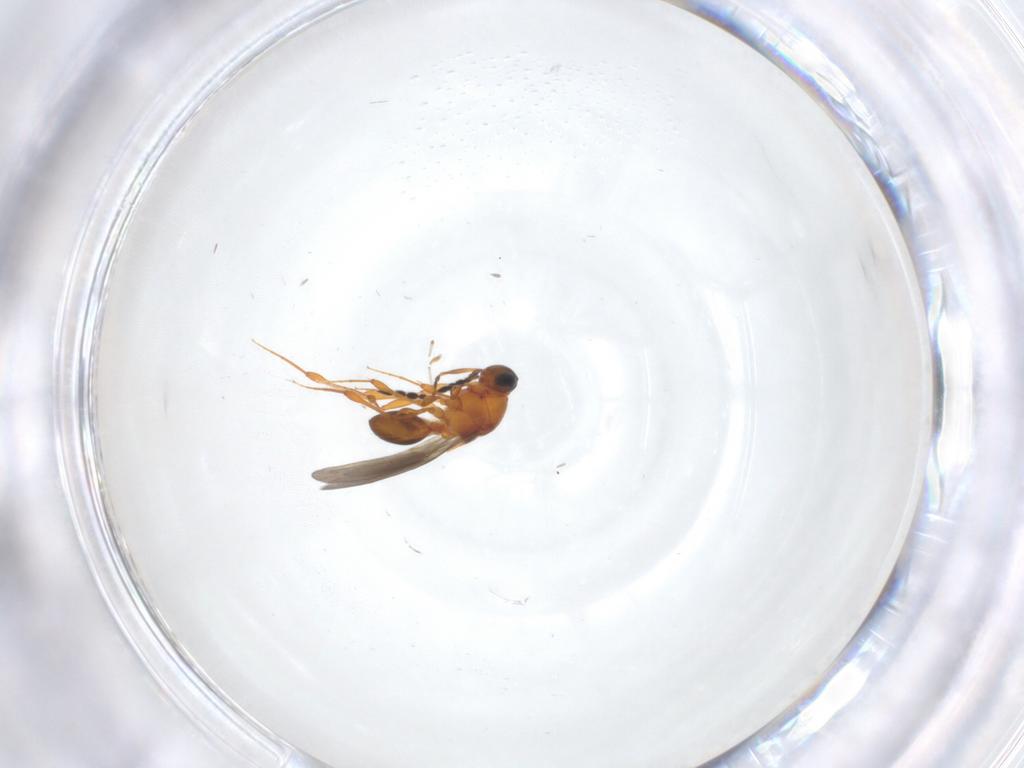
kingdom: Animalia
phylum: Arthropoda
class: Insecta
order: Hymenoptera
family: Platygastridae
